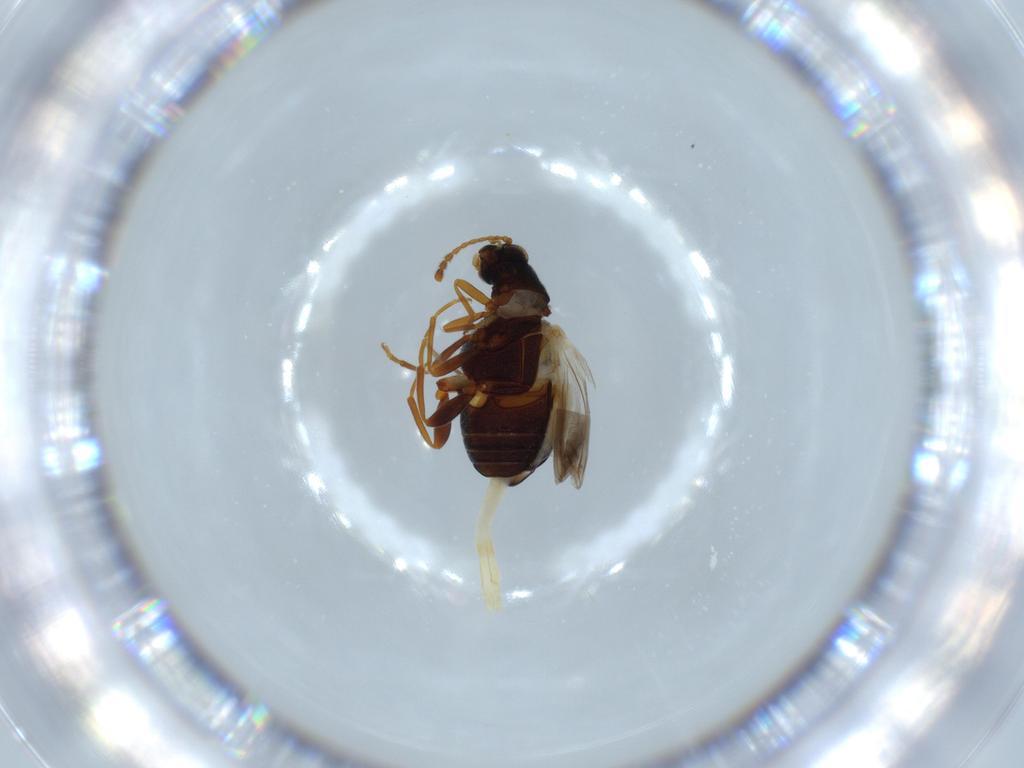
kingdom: Animalia
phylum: Arthropoda
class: Insecta
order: Coleoptera
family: Aderidae
